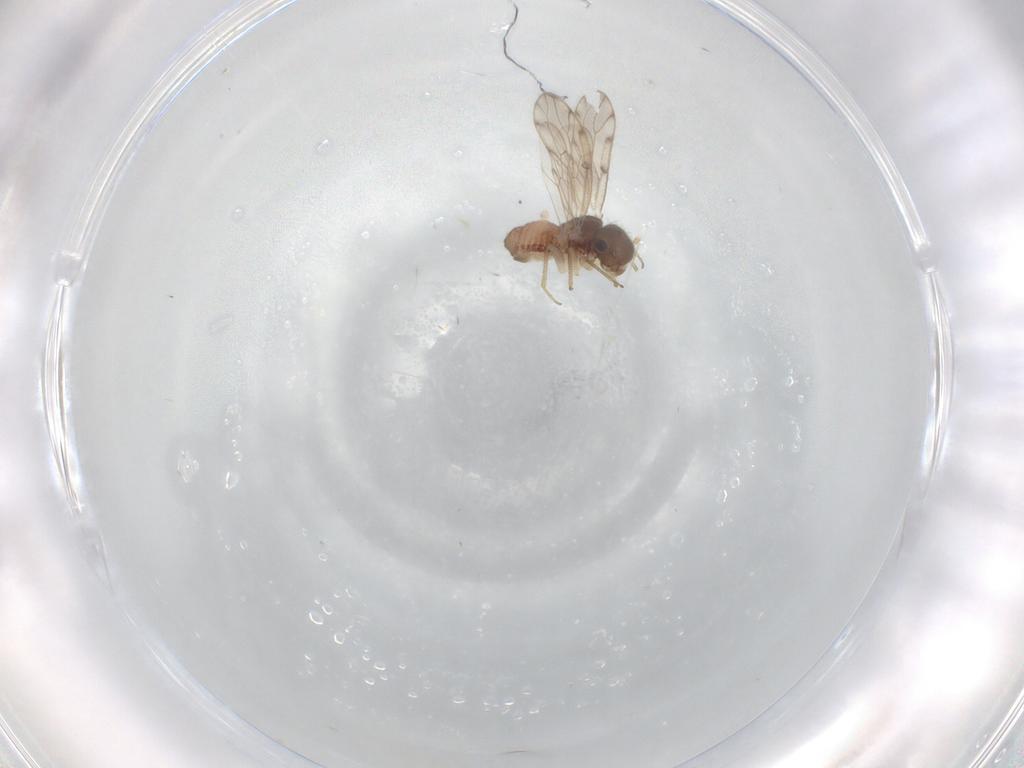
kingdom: Animalia
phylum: Arthropoda
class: Insecta
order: Psocodea
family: Peripsocidae
